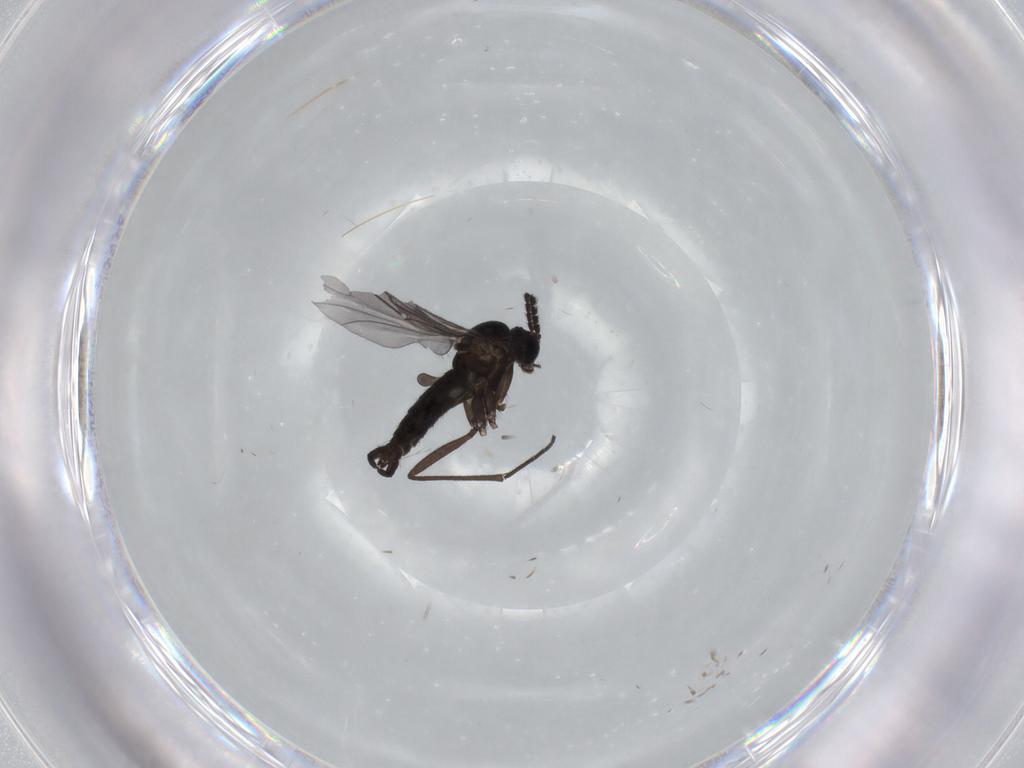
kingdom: Animalia
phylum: Arthropoda
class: Insecta
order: Diptera
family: Sciaridae
